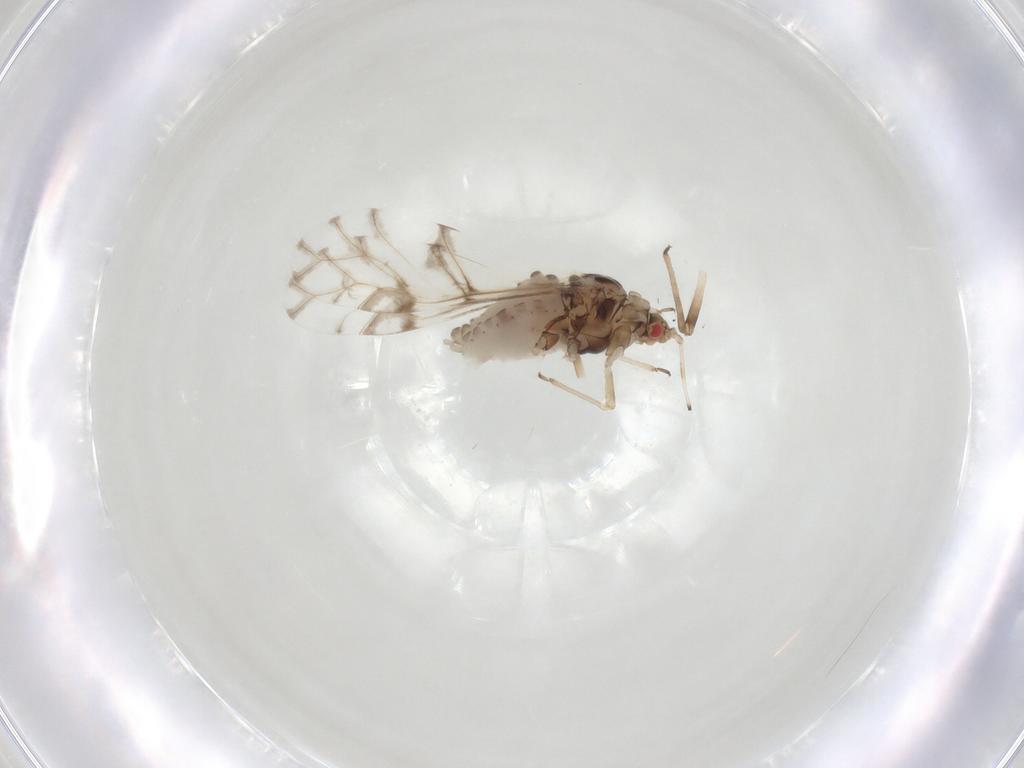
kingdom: Animalia
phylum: Arthropoda
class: Insecta
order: Hemiptera
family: Aphididae
